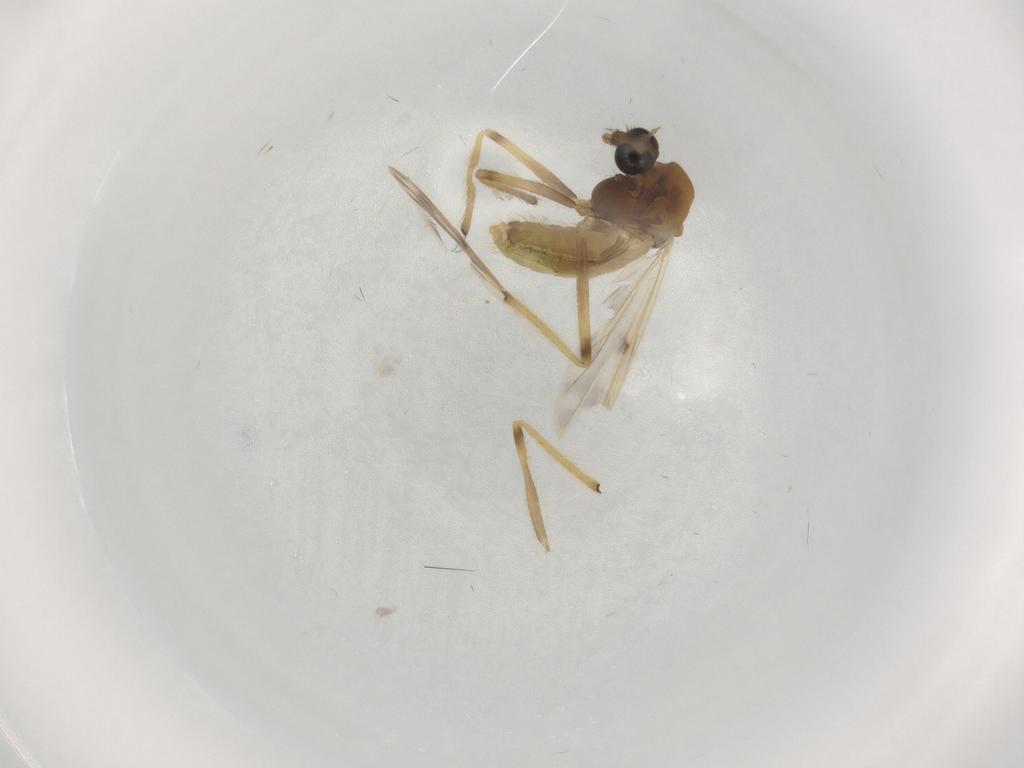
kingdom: Animalia
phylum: Arthropoda
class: Insecta
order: Diptera
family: Chironomidae
